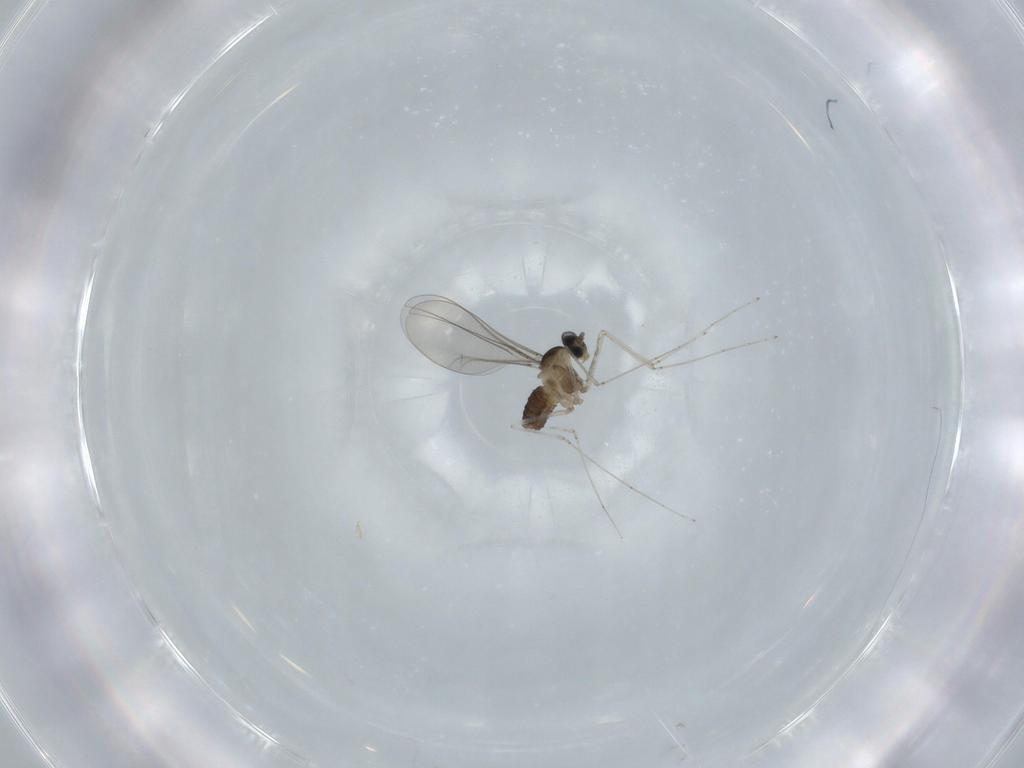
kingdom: Animalia
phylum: Arthropoda
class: Insecta
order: Diptera
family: Cecidomyiidae
